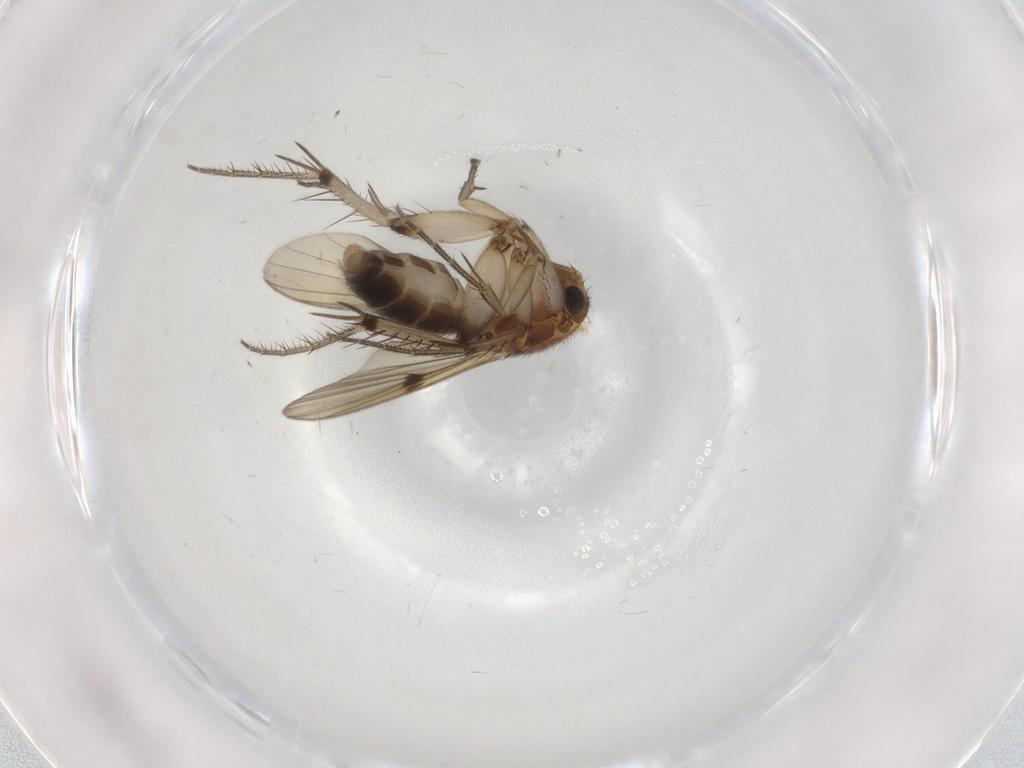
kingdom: Animalia
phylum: Arthropoda
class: Insecta
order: Diptera
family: Mycetophilidae
